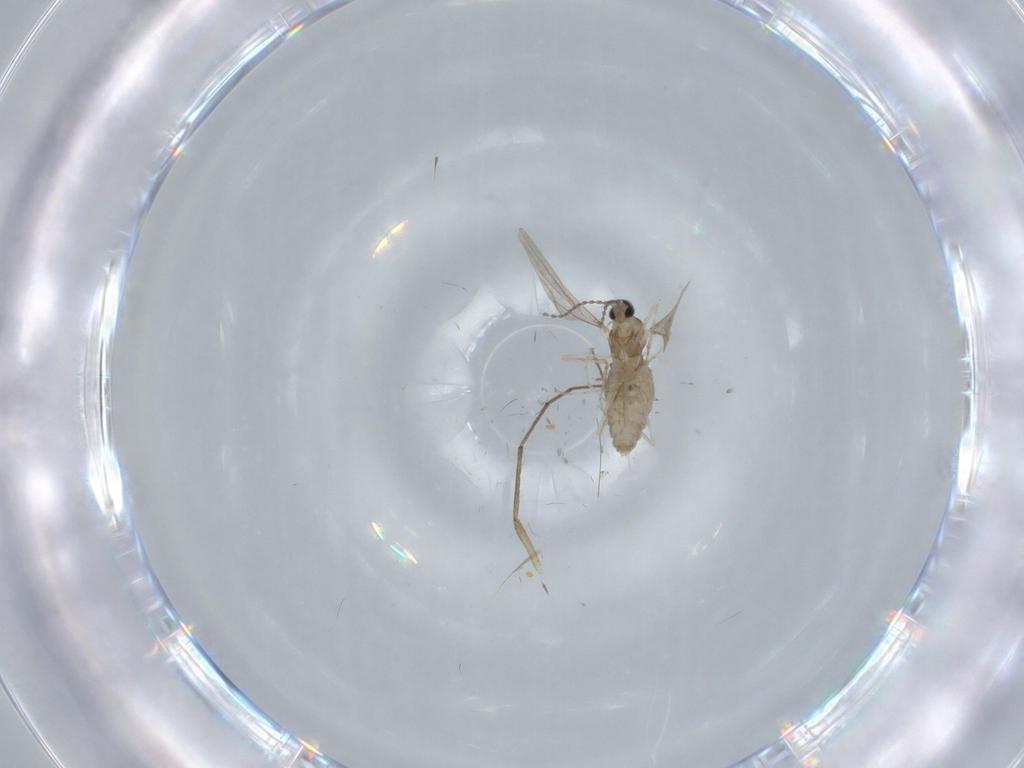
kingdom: Animalia
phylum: Arthropoda
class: Insecta
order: Diptera
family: Cecidomyiidae
